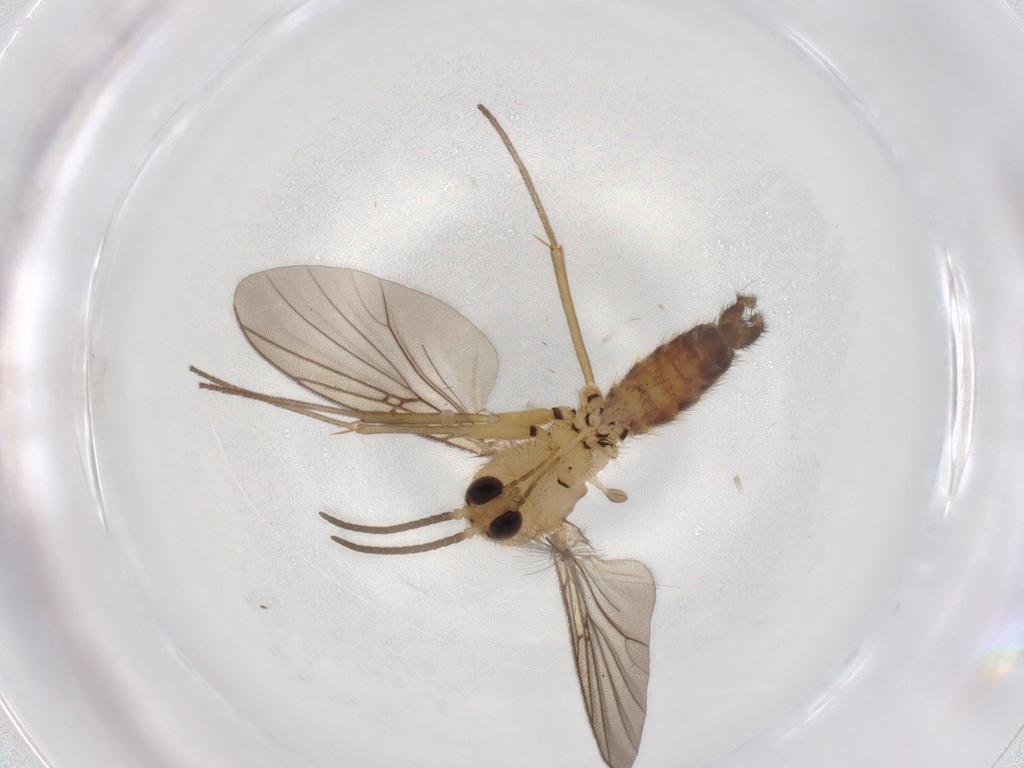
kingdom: Animalia
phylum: Arthropoda
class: Insecta
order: Diptera
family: Mycetophilidae
